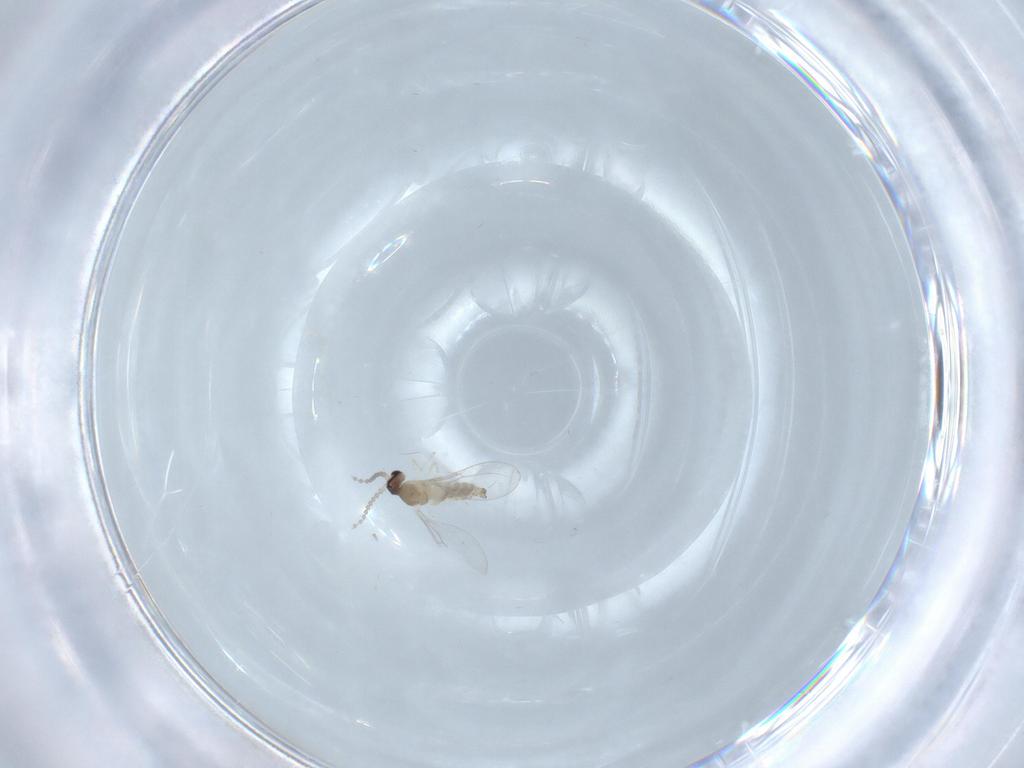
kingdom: Animalia
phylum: Arthropoda
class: Insecta
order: Diptera
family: Cecidomyiidae
